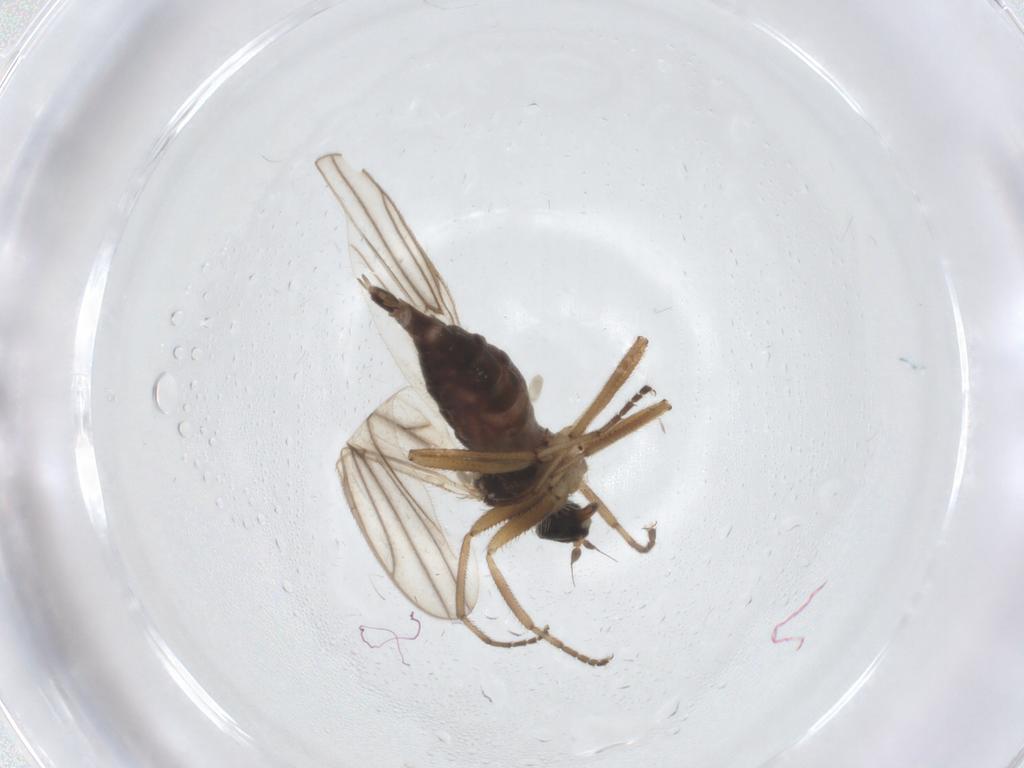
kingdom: Animalia
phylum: Arthropoda
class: Insecta
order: Diptera
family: Hybotidae
